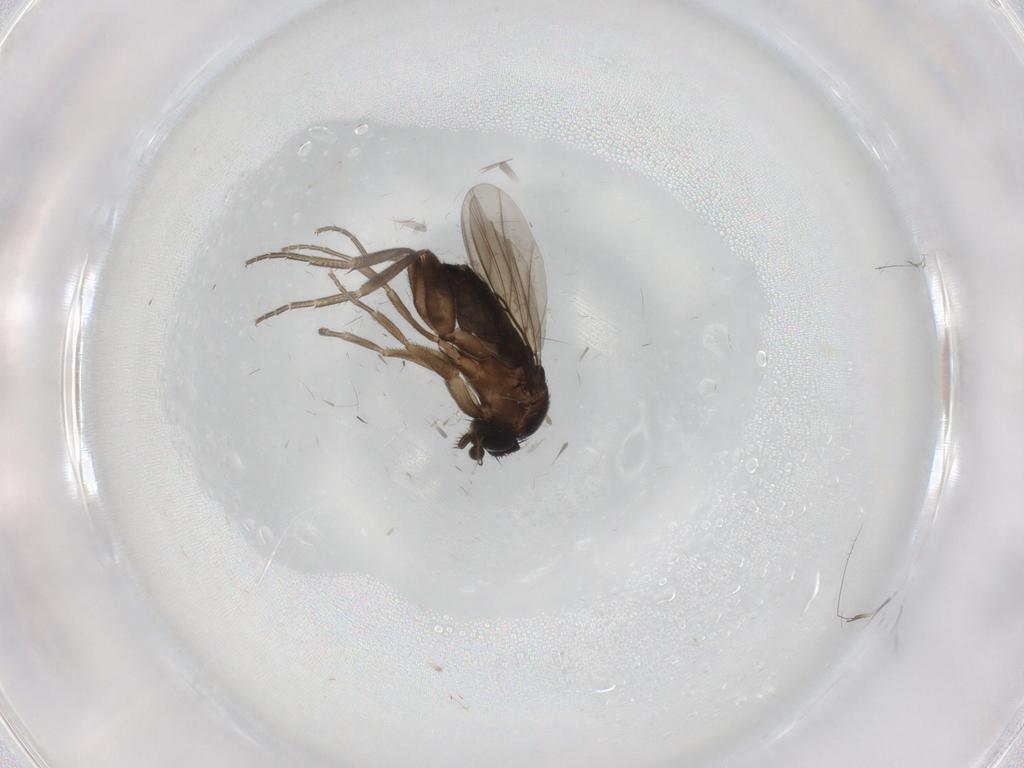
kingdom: Animalia
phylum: Arthropoda
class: Insecta
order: Diptera
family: Phoridae
